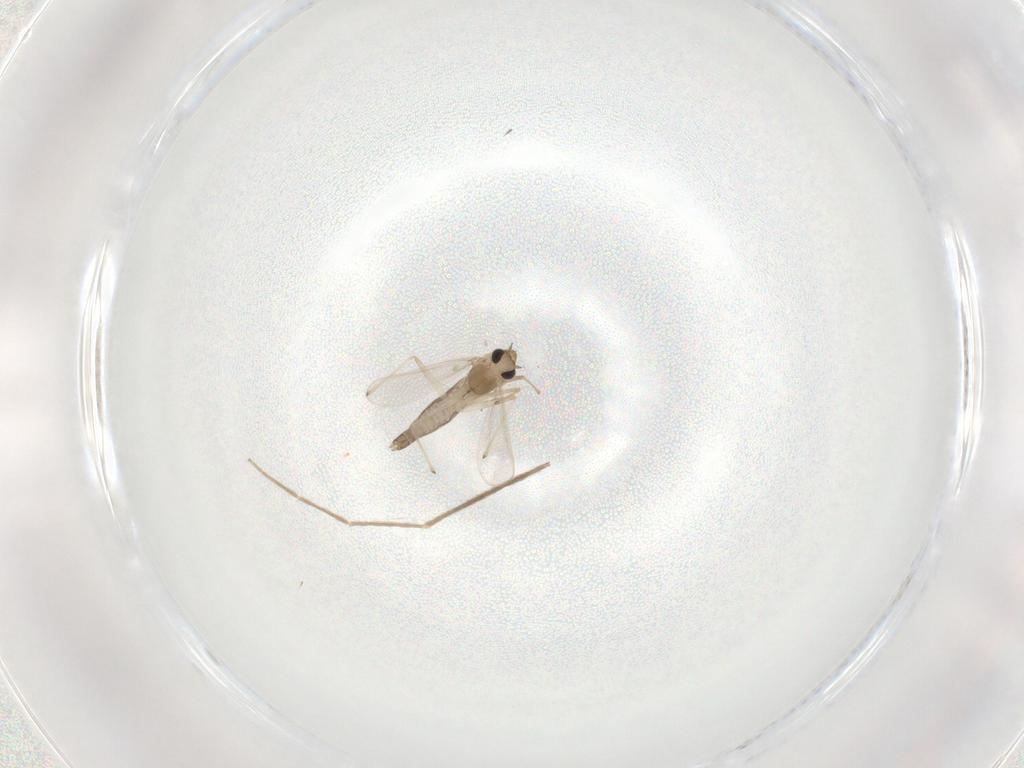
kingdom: Animalia
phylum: Arthropoda
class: Insecta
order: Diptera
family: Chironomidae
